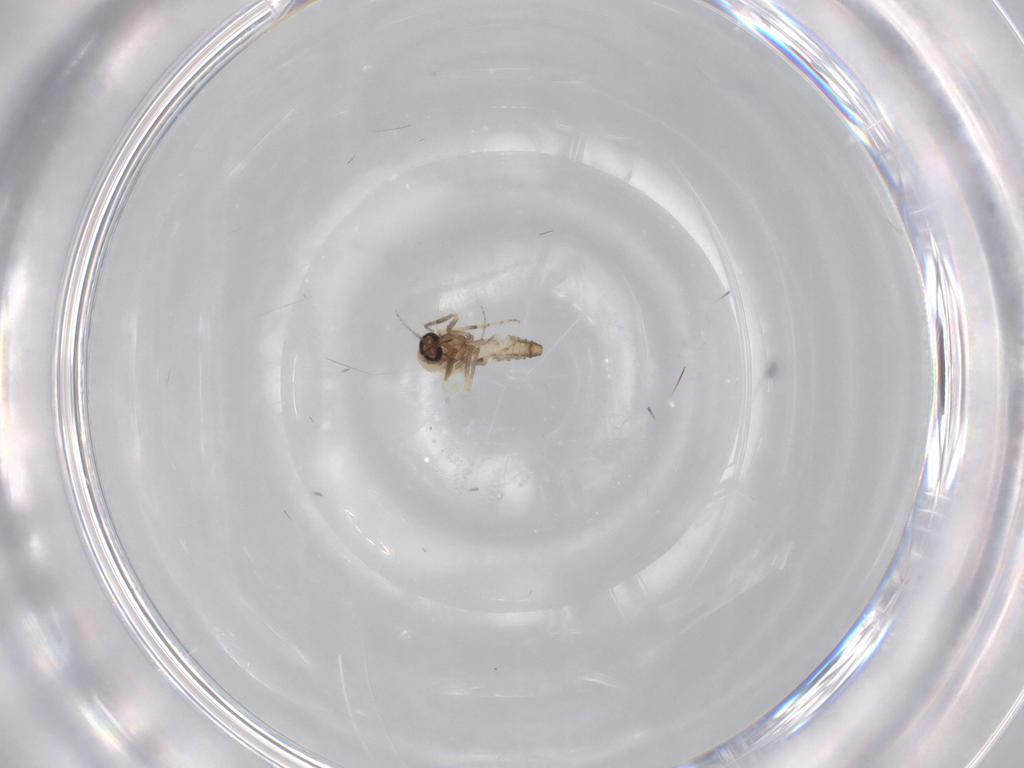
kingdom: Animalia
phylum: Arthropoda
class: Insecta
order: Diptera
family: Ceratopogonidae
